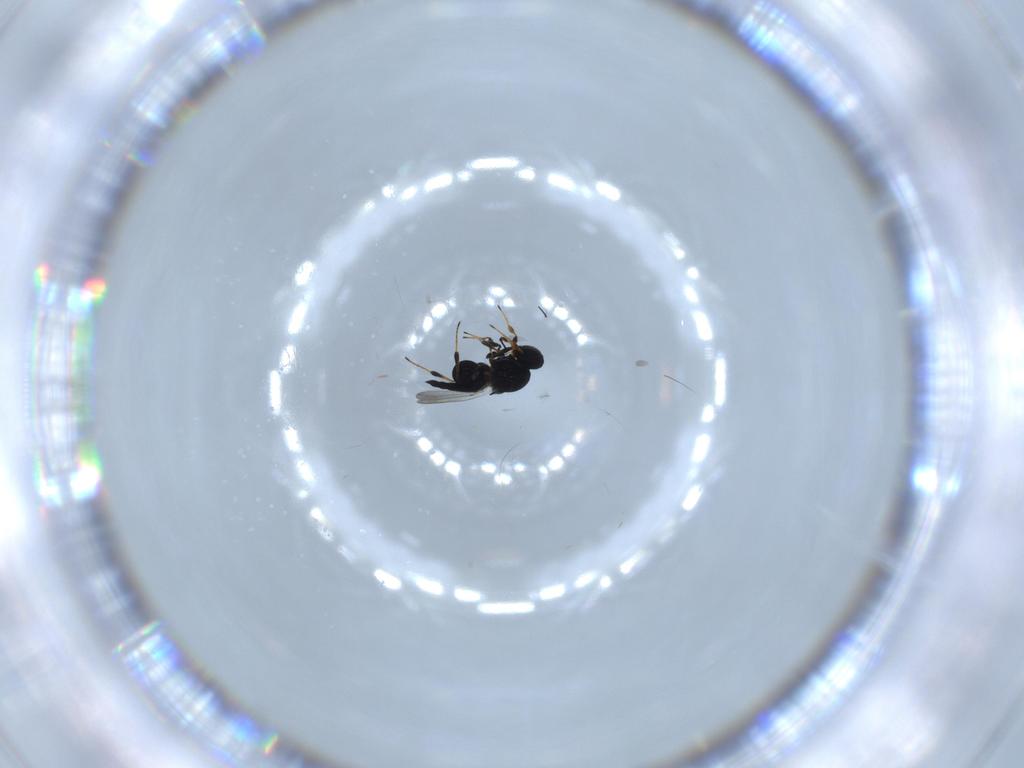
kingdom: Animalia
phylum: Arthropoda
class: Insecta
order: Hymenoptera
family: Formicidae
